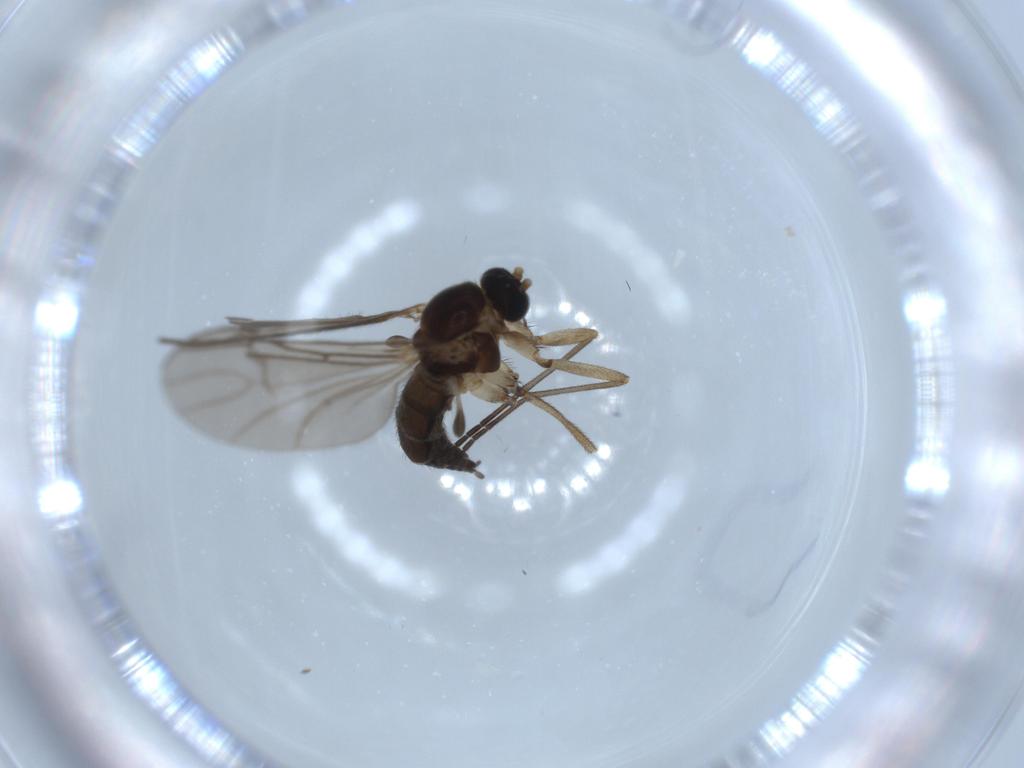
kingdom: Animalia
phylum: Arthropoda
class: Insecta
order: Diptera
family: Sciaridae
